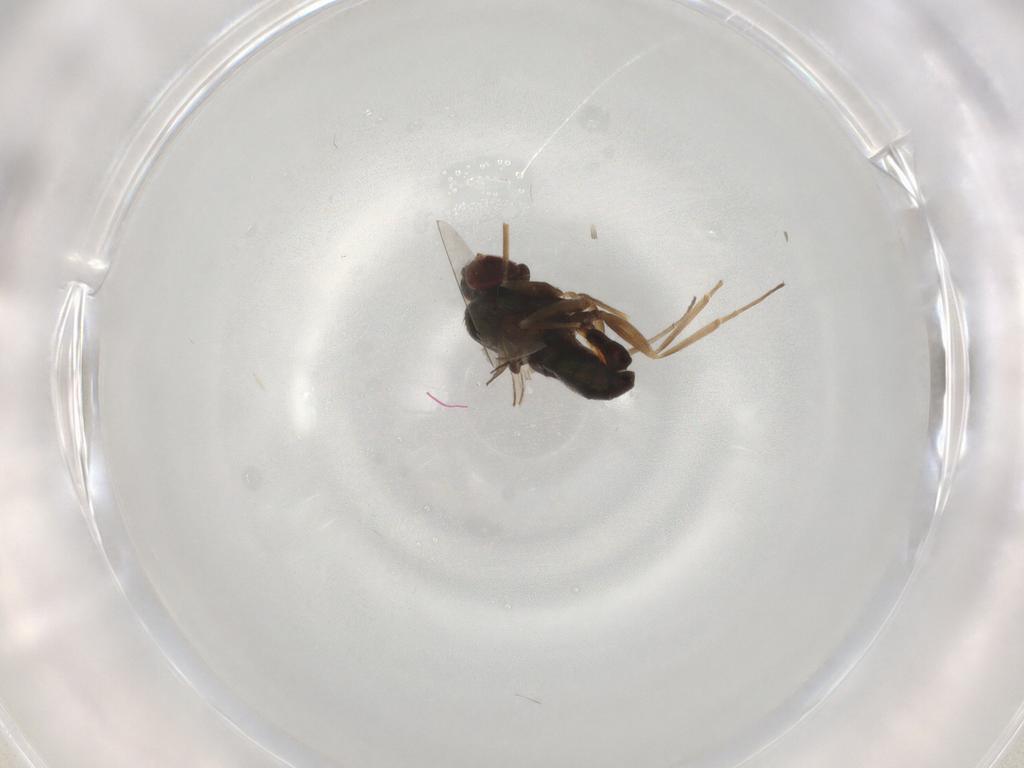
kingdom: Animalia
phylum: Arthropoda
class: Insecta
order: Diptera
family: Dolichopodidae
